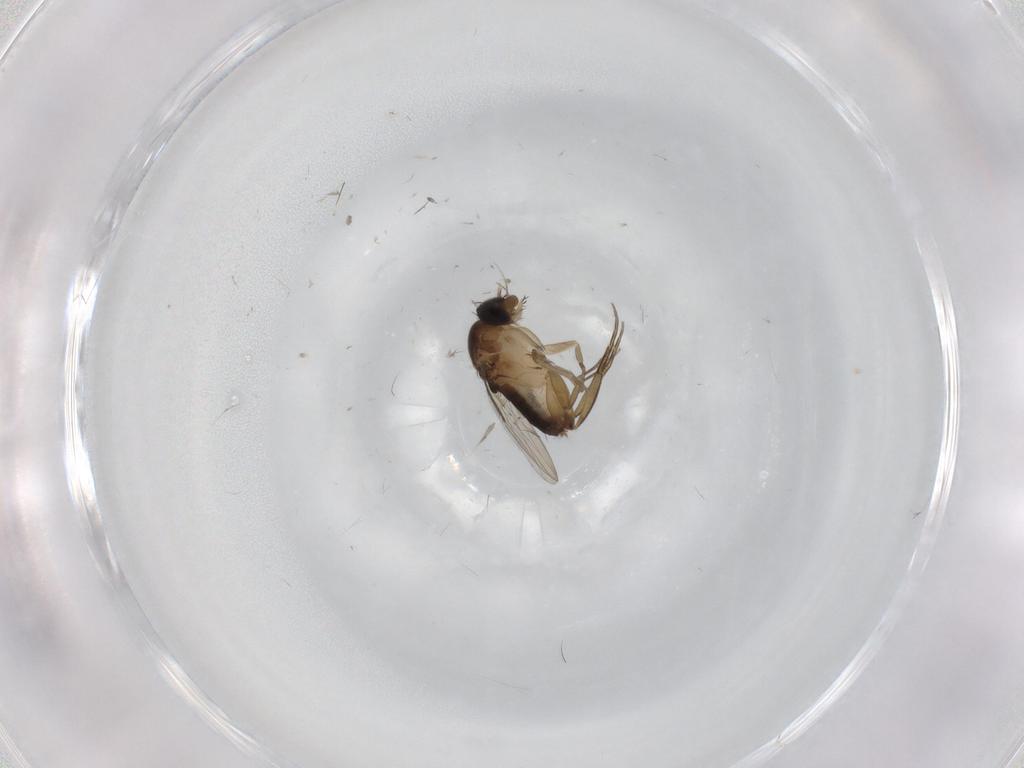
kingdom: Animalia
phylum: Arthropoda
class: Insecta
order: Diptera
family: Phoridae
